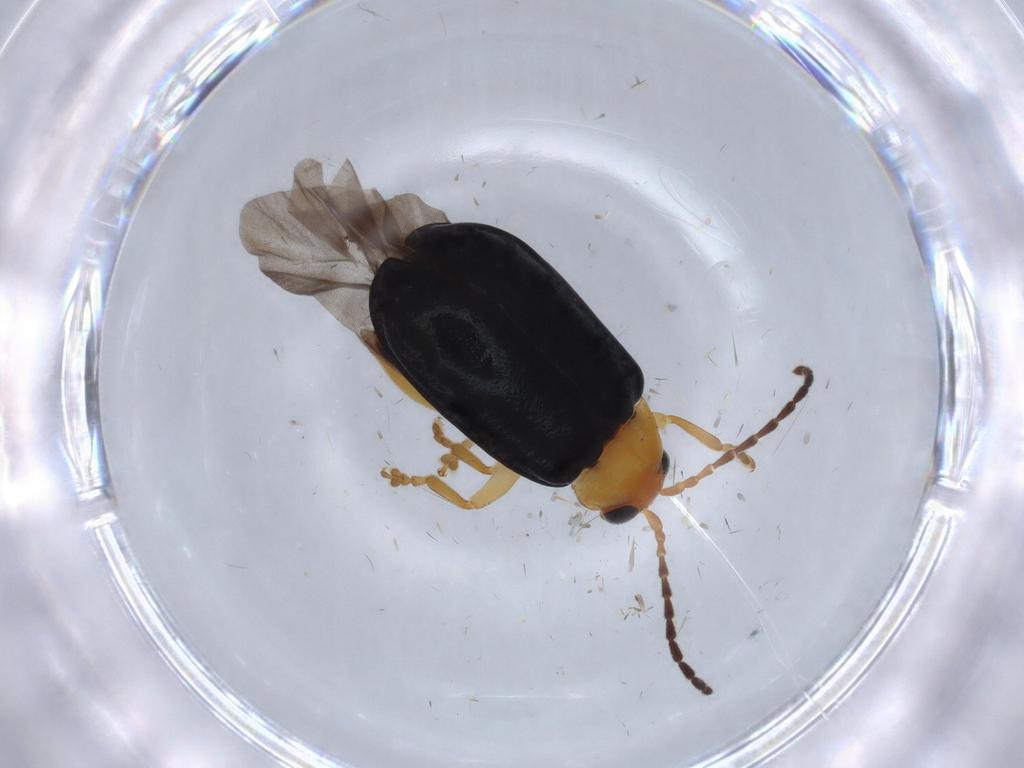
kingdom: Animalia
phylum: Arthropoda
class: Insecta
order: Coleoptera
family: Chrysomelidae
